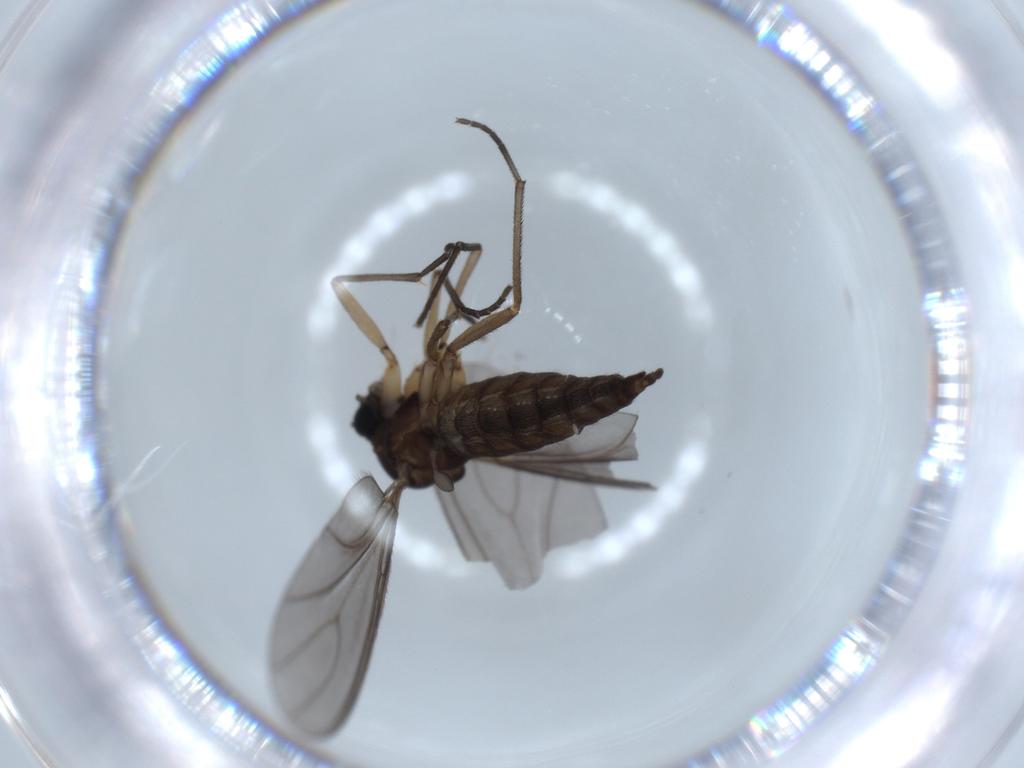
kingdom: Animalia
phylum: Arthropoda
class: Insecta
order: Diptera
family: Sciaridae
